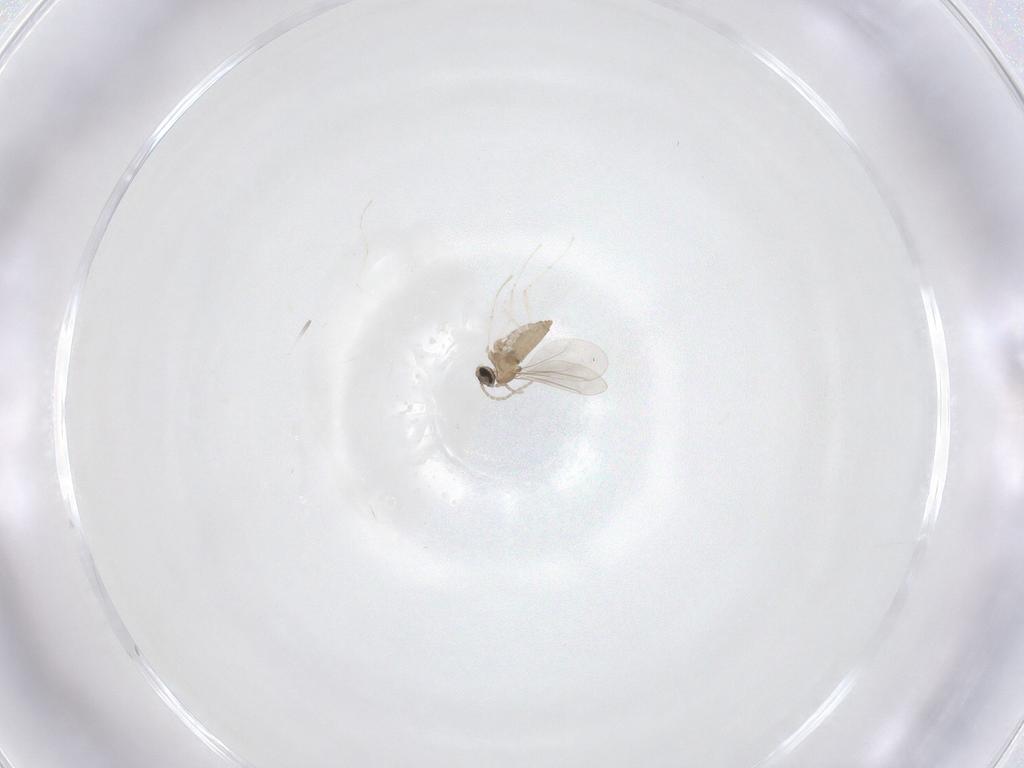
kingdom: Animalia
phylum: Arthropoda
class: Insecta
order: Diptera
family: Cecidomyiidae
